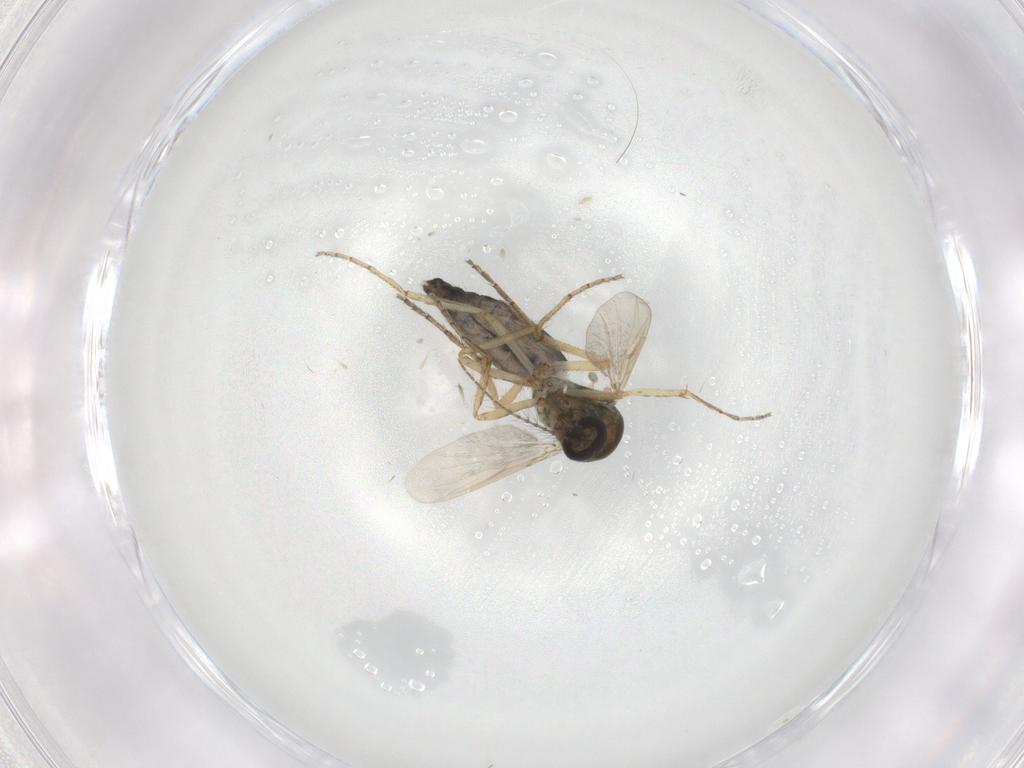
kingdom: Animalia
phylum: Arthropoda
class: Insecta
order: Diptera
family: Ceratopogonidae
